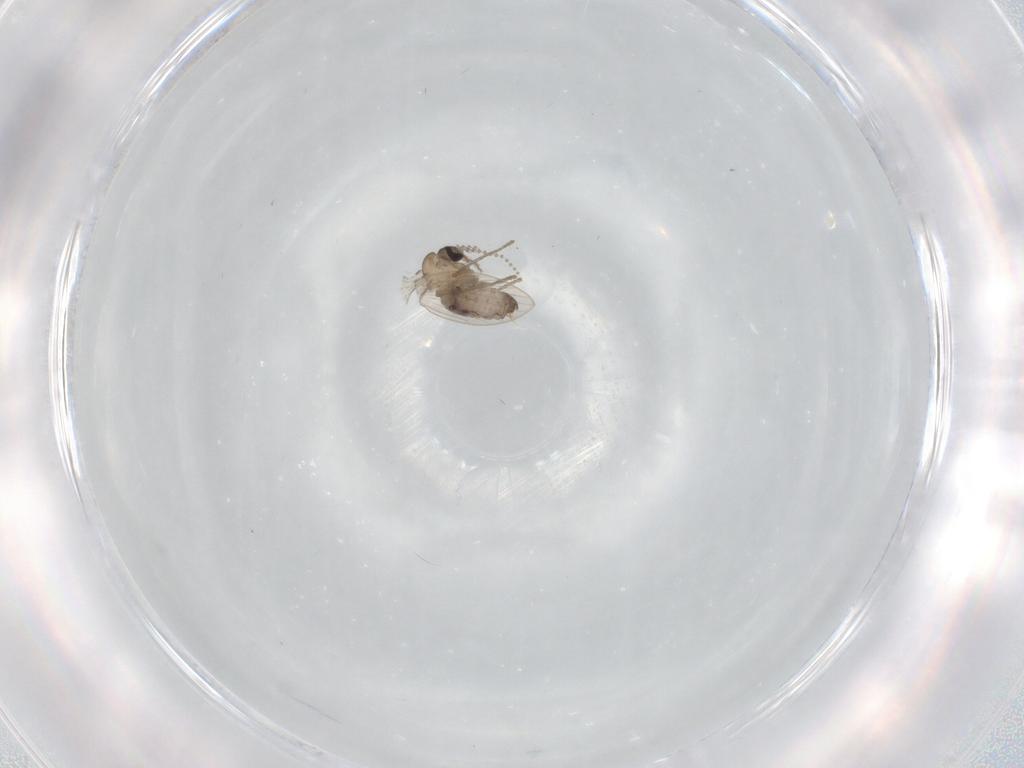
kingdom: Animalia
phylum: Arthropoda
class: Insecta
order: Diptera
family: Psychodidae
